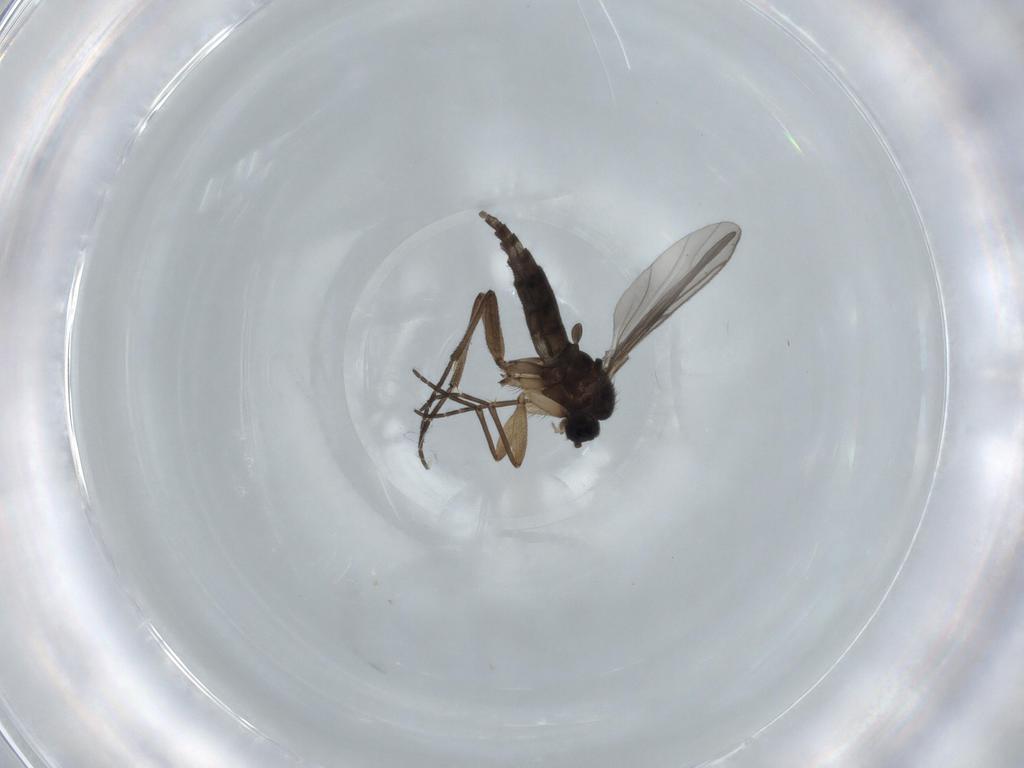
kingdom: Animalia
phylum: Arthropoda
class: Insecta
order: Diptera
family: Sciaridae
